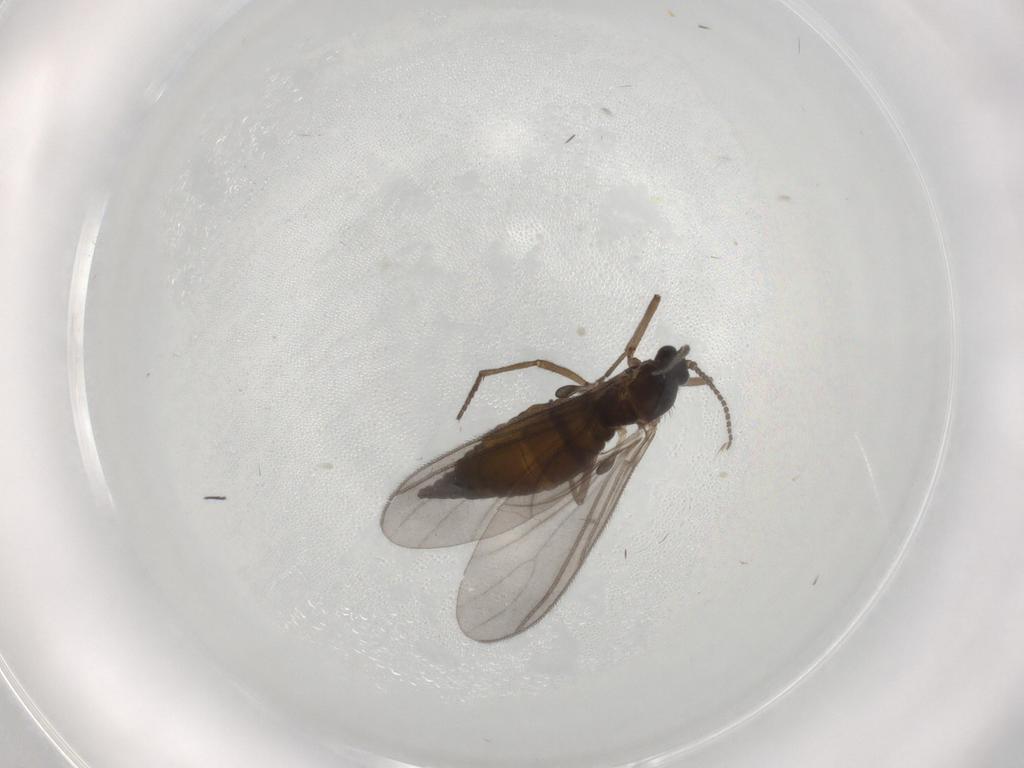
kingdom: Animalia
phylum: Arthropoda
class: Insecta
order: Diptera
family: Sciaridae
